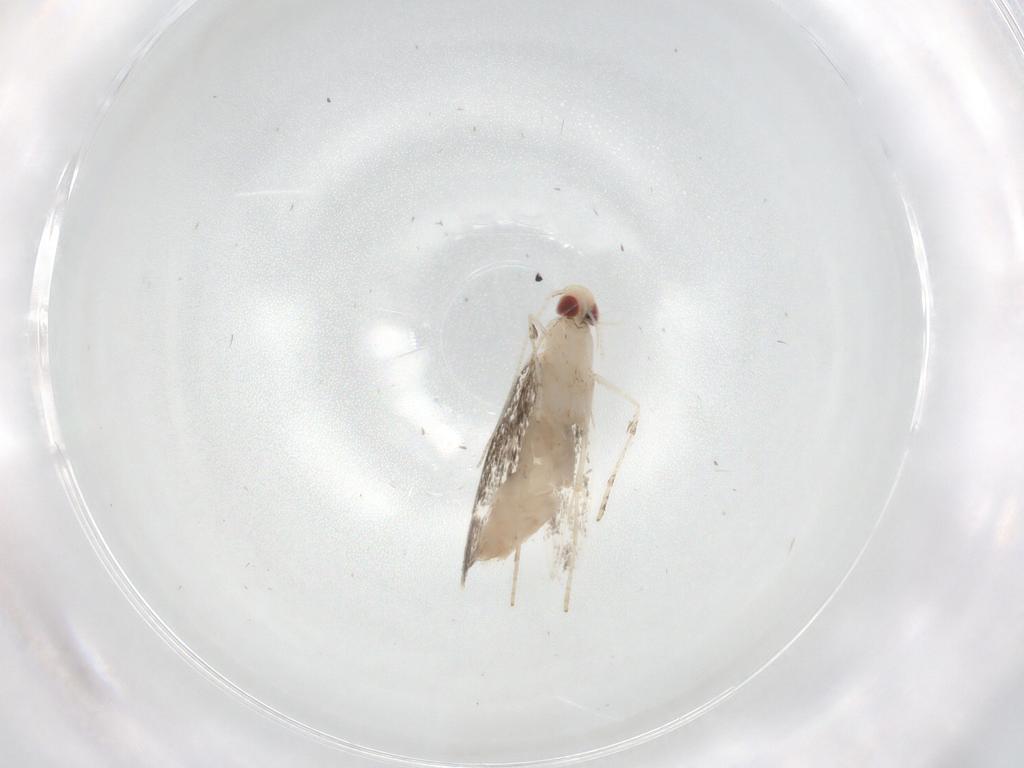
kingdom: Animalia
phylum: Arthropoda
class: Insecta
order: Lepidoptera
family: Gracillariidae
